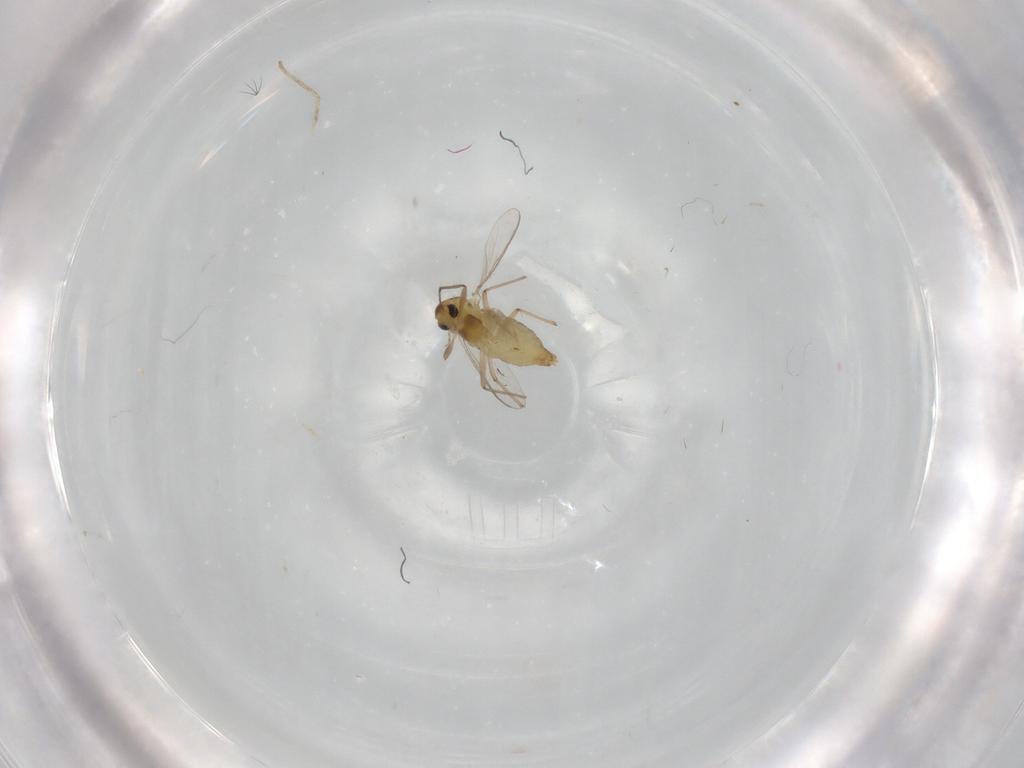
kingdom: Animalia
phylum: Arthropoda
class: Insecta
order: Diptera
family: Chironomidae
